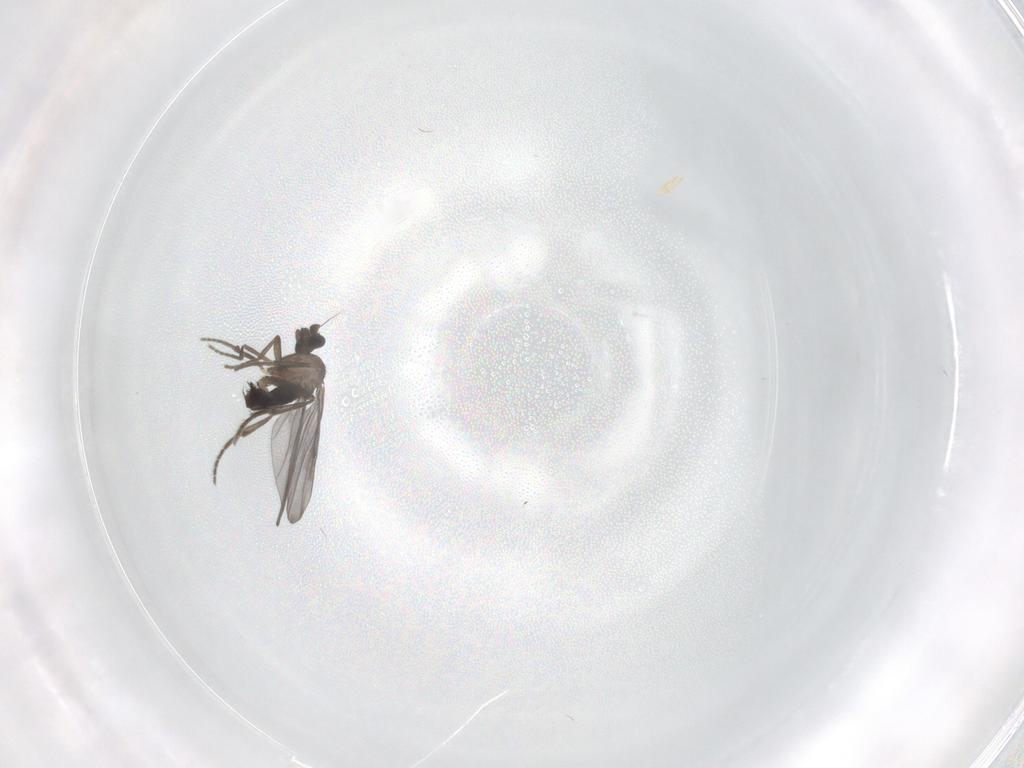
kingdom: Animalia
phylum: Arthropoda
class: Insecta
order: Diptera
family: Phoridae
